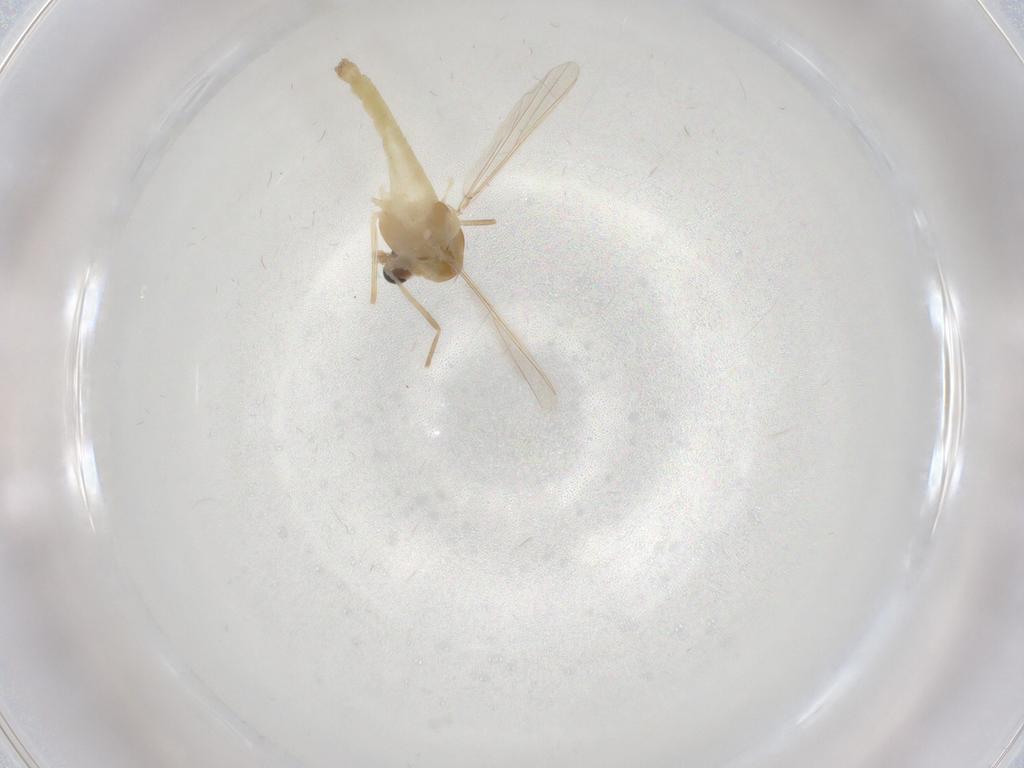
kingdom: Animalia
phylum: Arthropoda
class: Insecta
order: Diptera
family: Chironomidae
